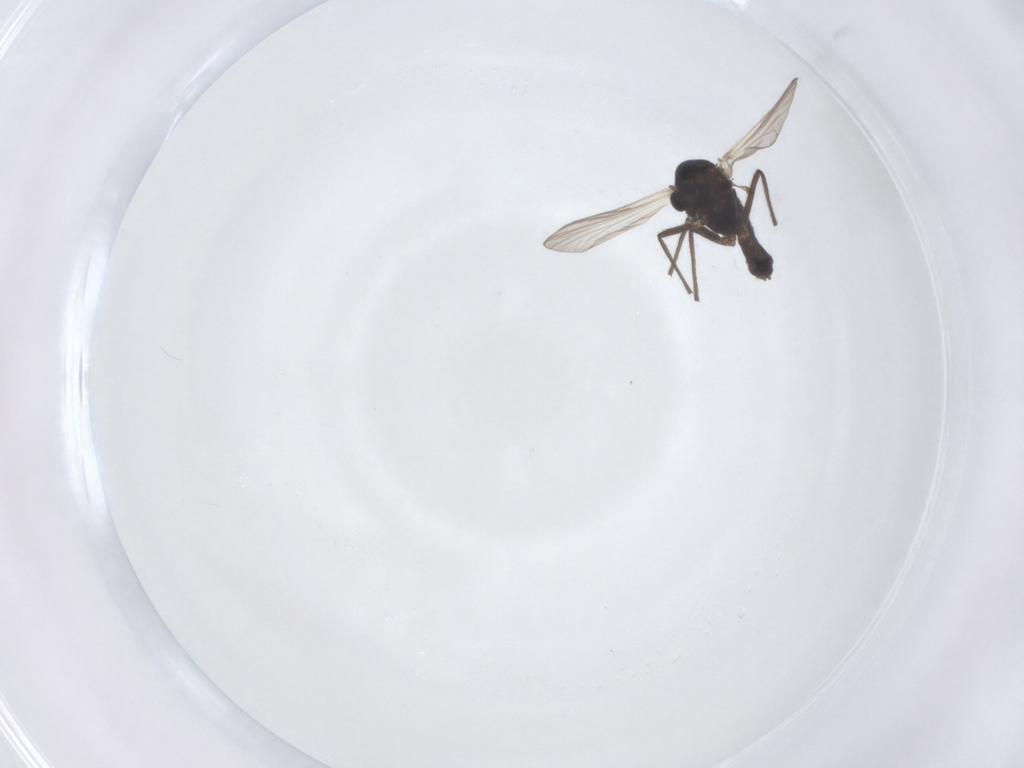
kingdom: Animalia
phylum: Arthropoda
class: Insecta
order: Diptera
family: Chironomidae
